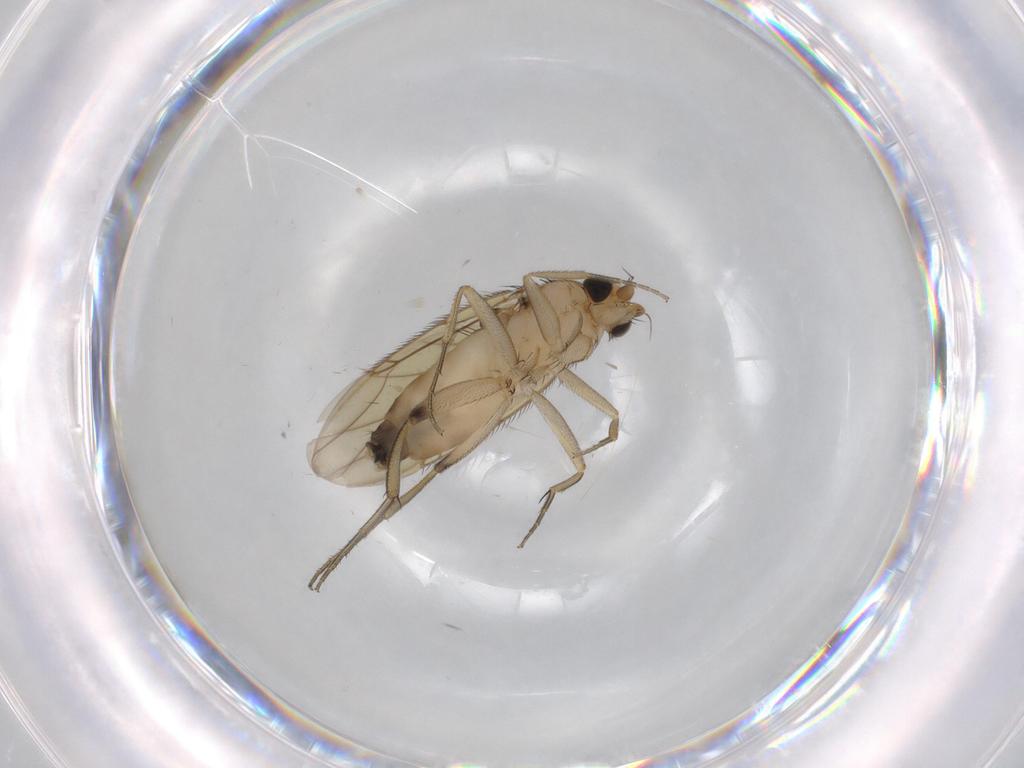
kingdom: Animalia
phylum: Arthropoda
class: Insecta
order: Diptera
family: Phoridae
